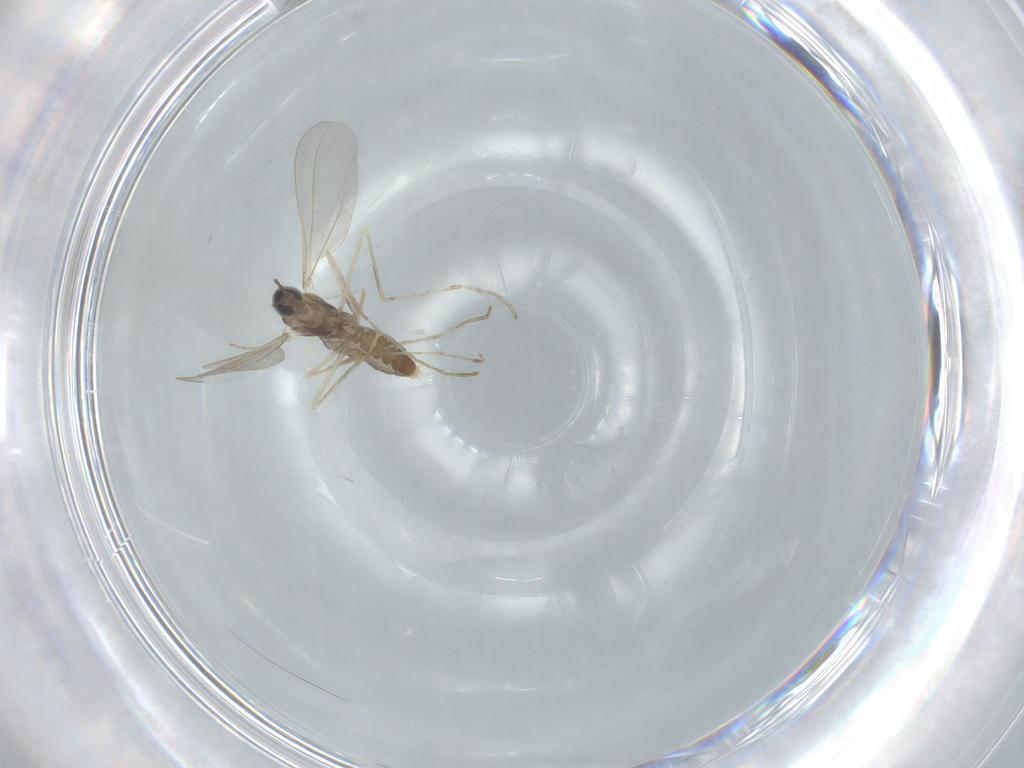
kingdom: Animalia
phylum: Arthropoda
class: Insecta
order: Diptera
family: Cecidomyiidae
